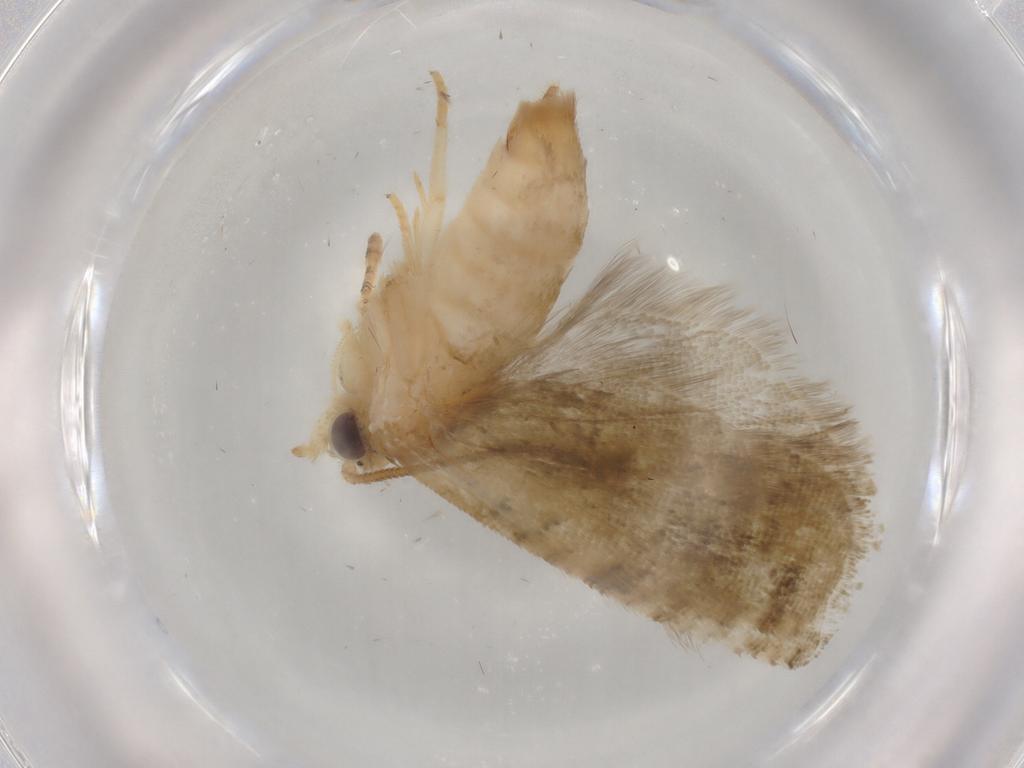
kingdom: Animalia
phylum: Arthropoda
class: Insecta
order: Lepidoptera
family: Tortricidae
